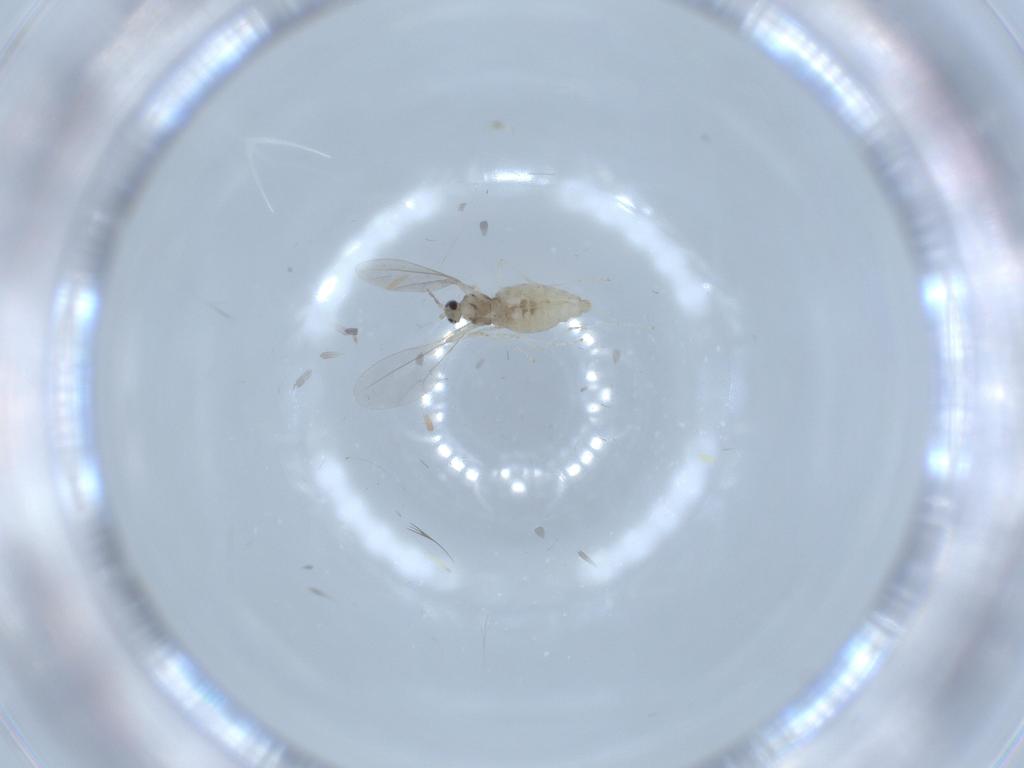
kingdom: Animalia
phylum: Arthropoda
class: Insecta
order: Diptera
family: Cecidomyiidae
